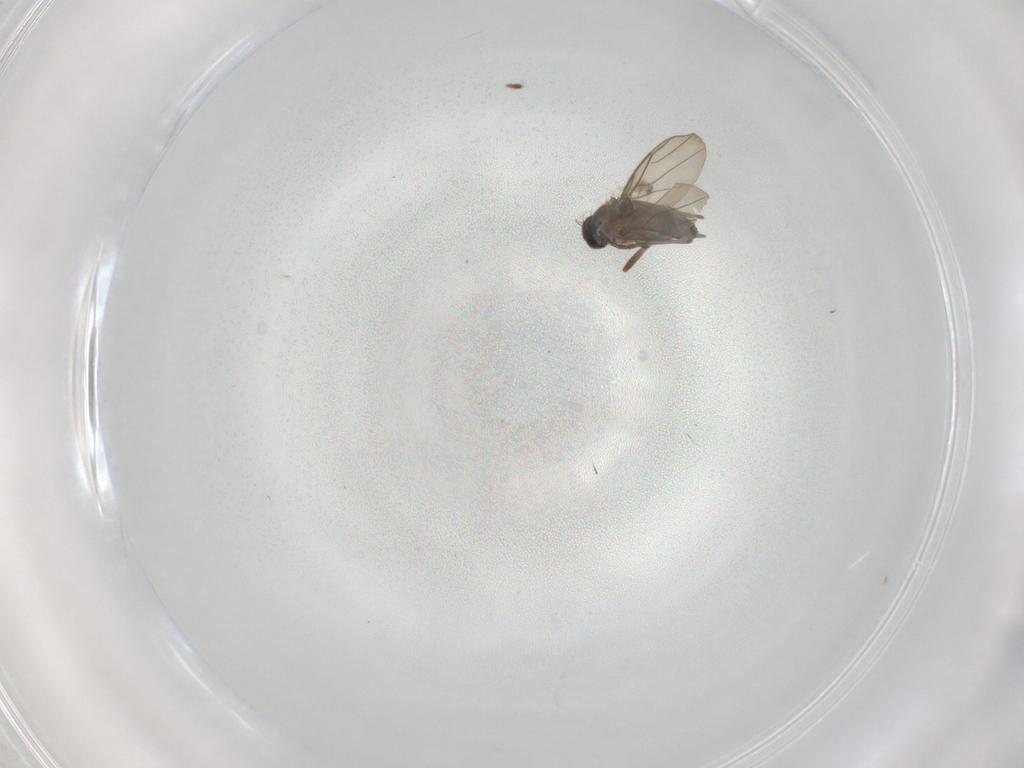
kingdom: Animalia
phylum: Arthropoda
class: Insecta
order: Diptera
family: Sciaridae
